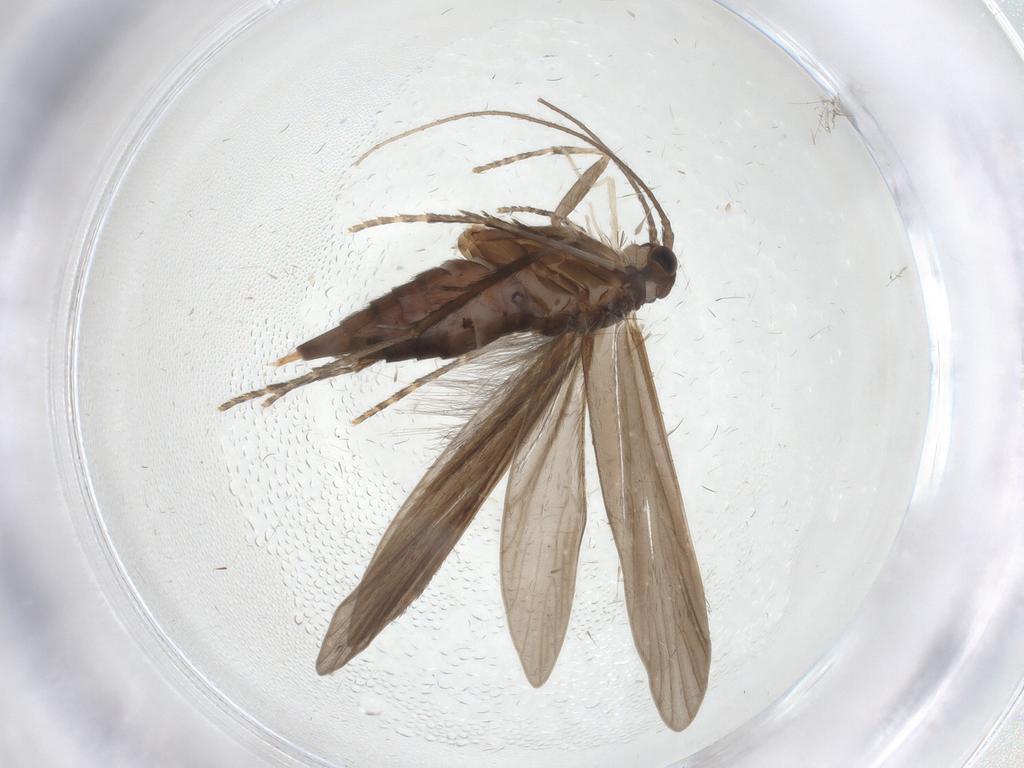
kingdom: Animalia
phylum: Arthropoda
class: Insecta
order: Trichoptera
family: Xiphocentronidae
